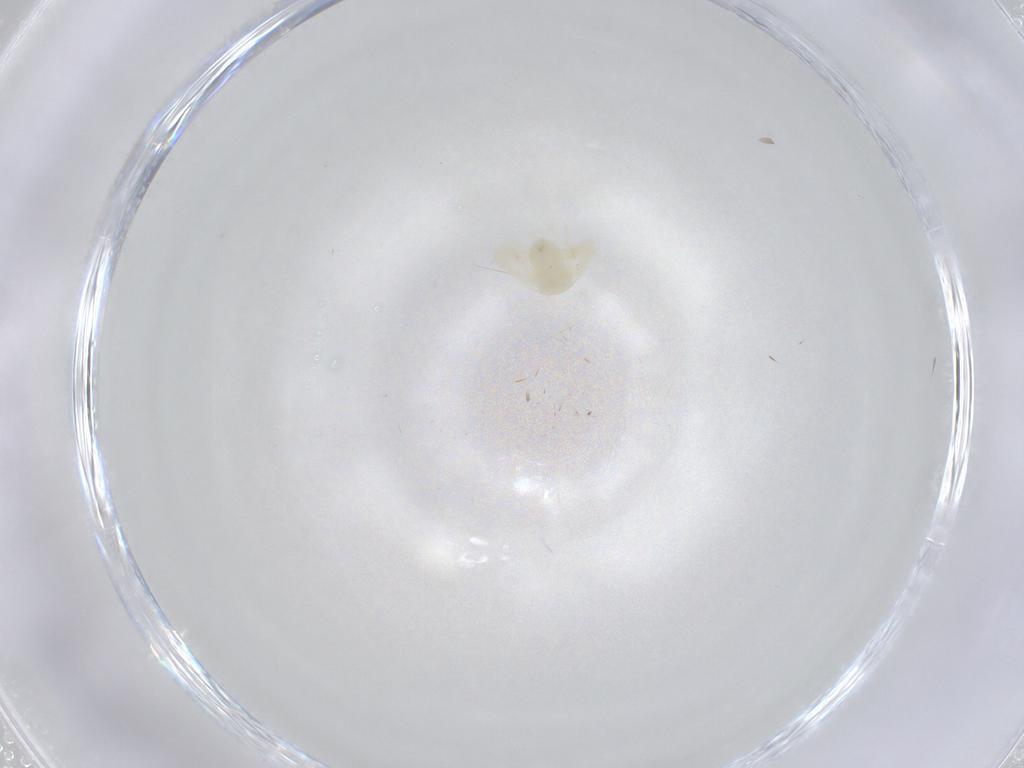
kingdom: Animalia
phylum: Arthropoda
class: Insecta
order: Hemiptera
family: Aleyrodidae
